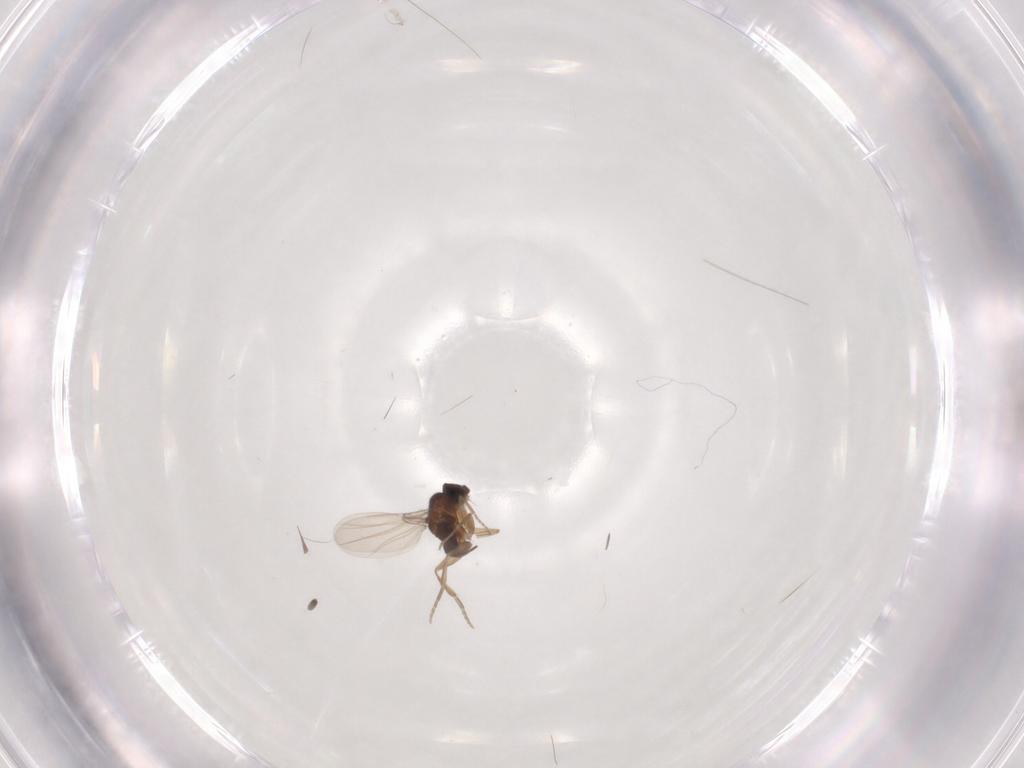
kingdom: Animalia
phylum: Arthropoda
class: Insecta
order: Diptera
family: Phoridae
